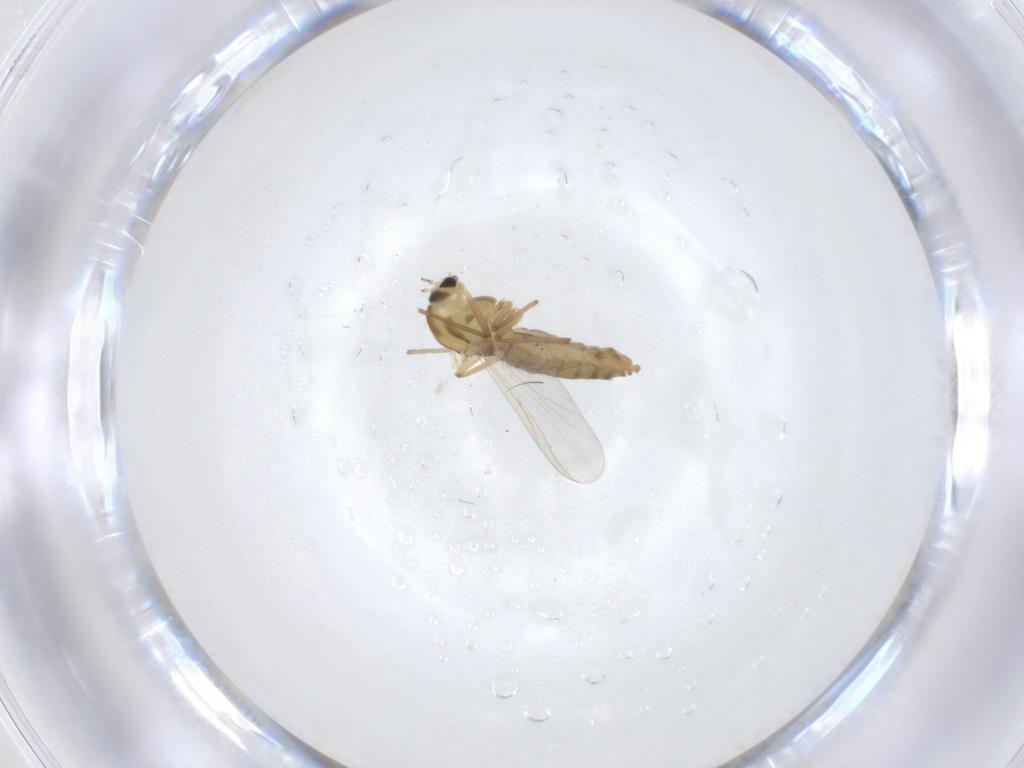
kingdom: Animalia
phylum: Arthropoda
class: Insecta
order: Diptera
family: Chironomidae
